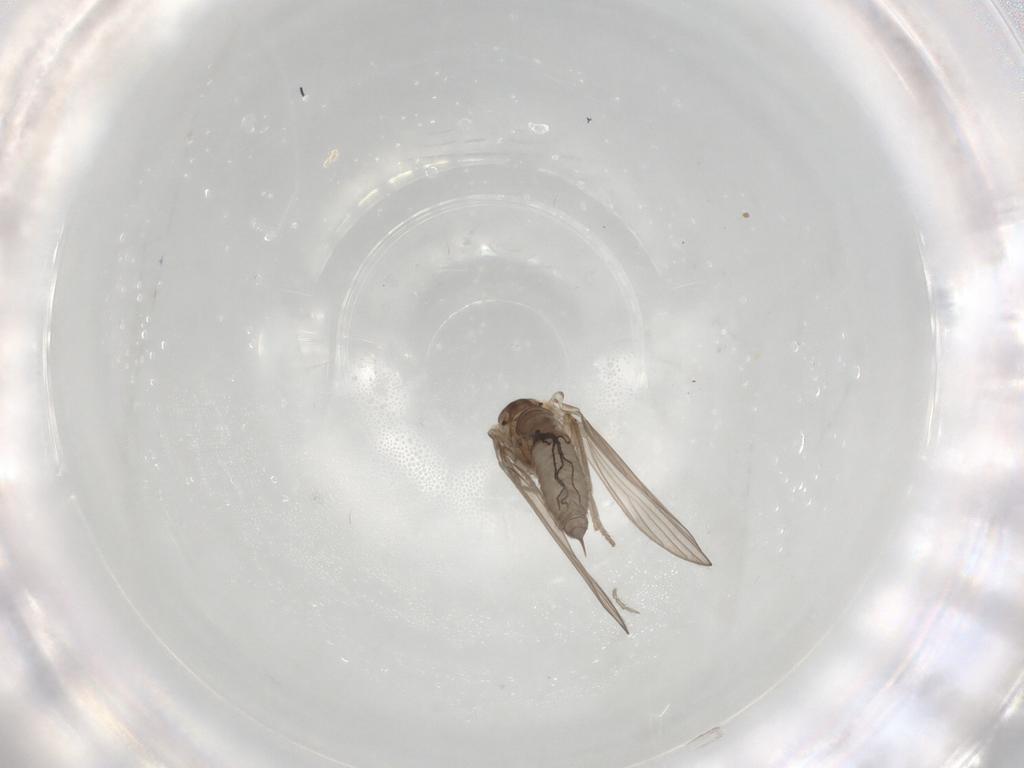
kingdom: Animalia
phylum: Arthropoda
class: Insecta
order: Diptera
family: Psychodidae
